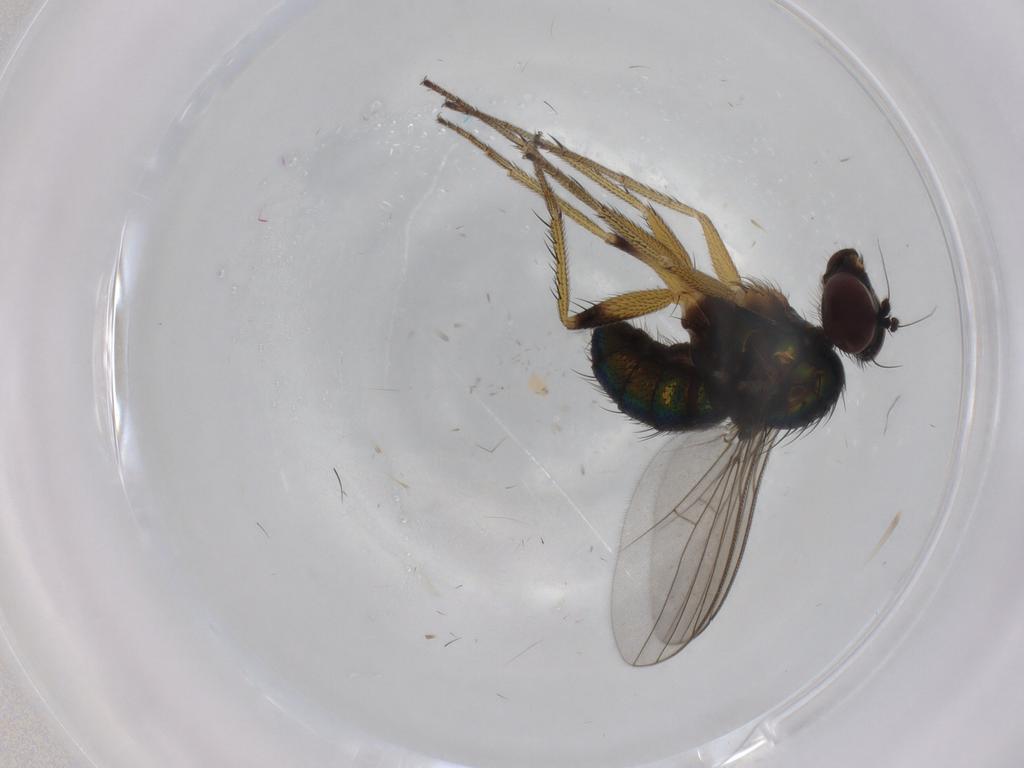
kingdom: Animalia
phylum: Arthropoda
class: Insecta
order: Diptera
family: Dolichopodidae
